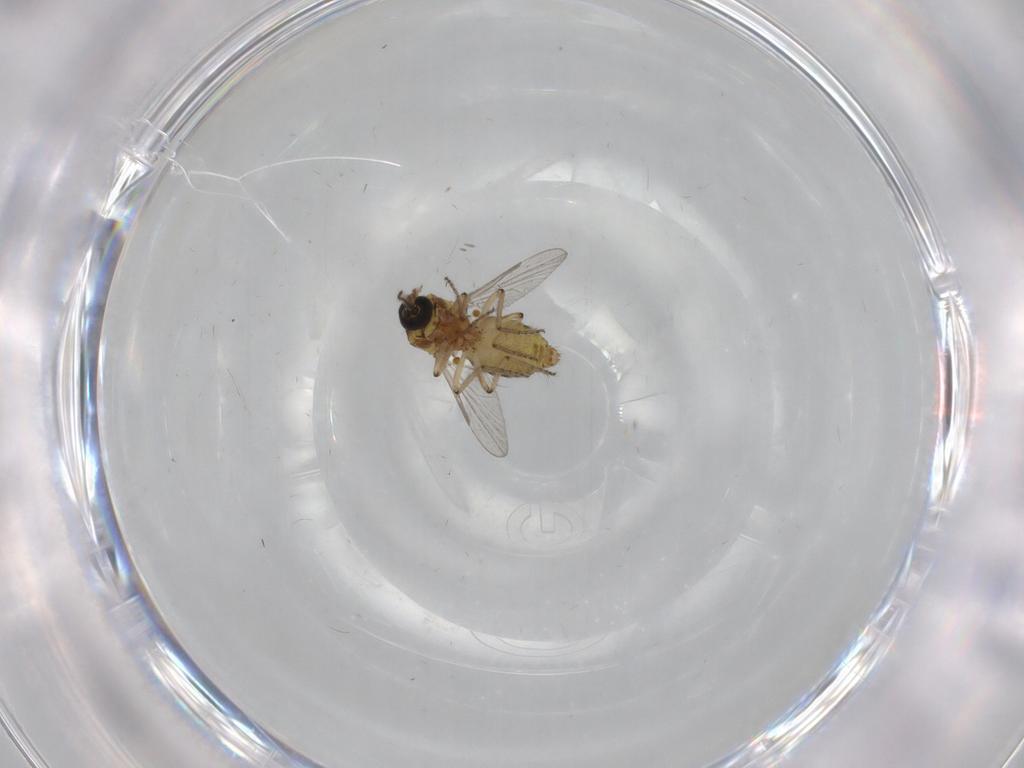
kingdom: Animalia
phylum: Arthropoda
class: Insecta
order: Diptera
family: Ceratopogonidae
